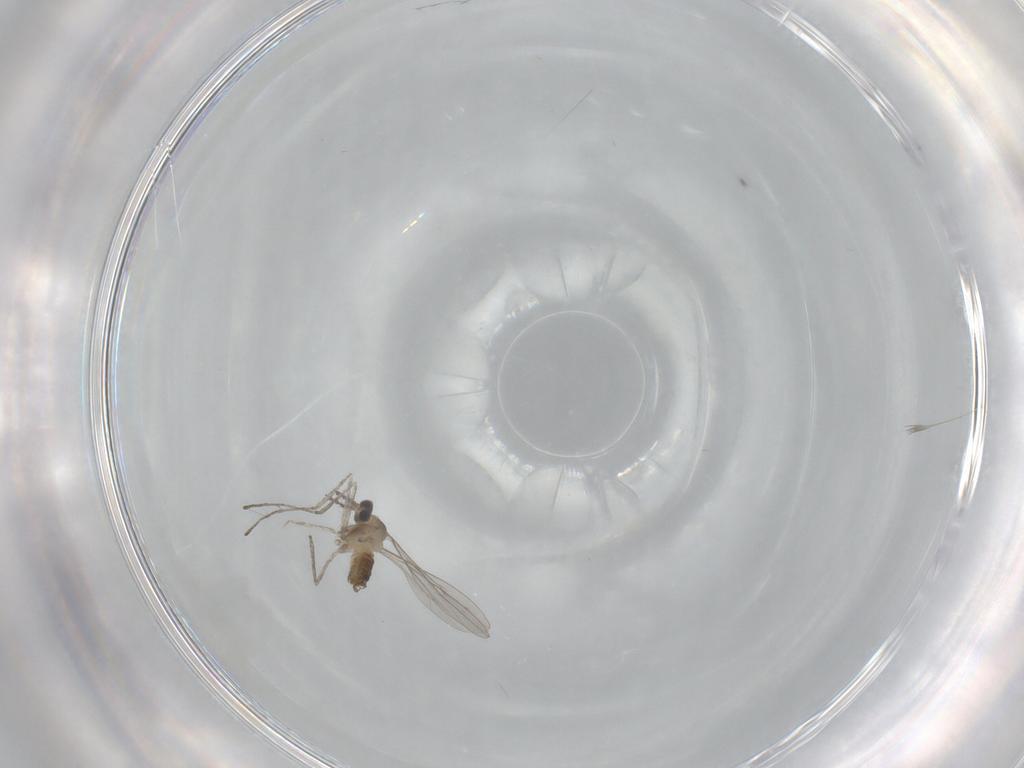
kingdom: Animalia
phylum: Arthropoda
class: Insecta
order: Diptera
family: Cecidomyiidae
